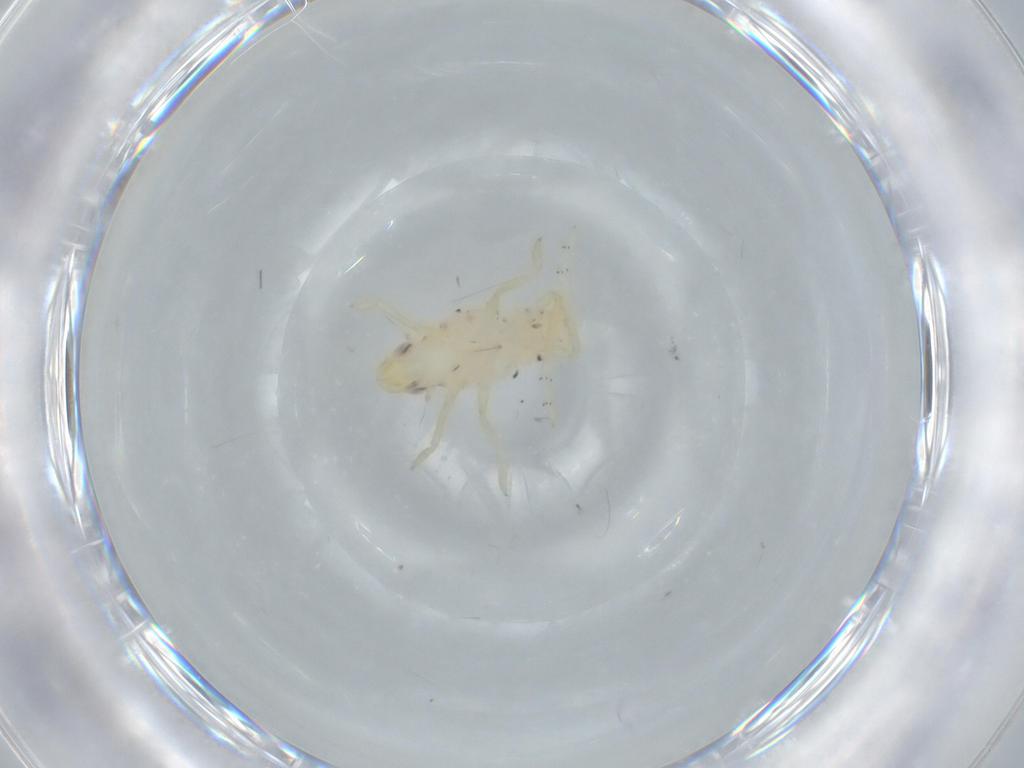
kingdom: Animalia
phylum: Arthropoda
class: Insecta
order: Hemiptera
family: Tropiduchidae
